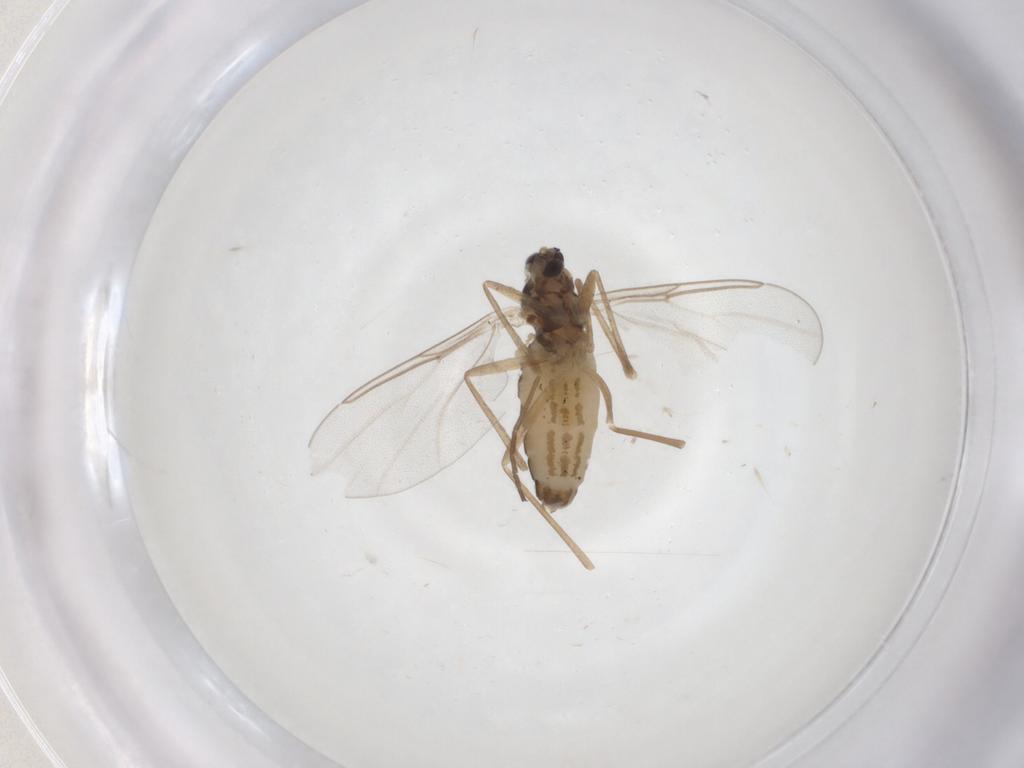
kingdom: Animalia
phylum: Arthropoda
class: Insecta
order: Diptera
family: Cecidomyiidae
